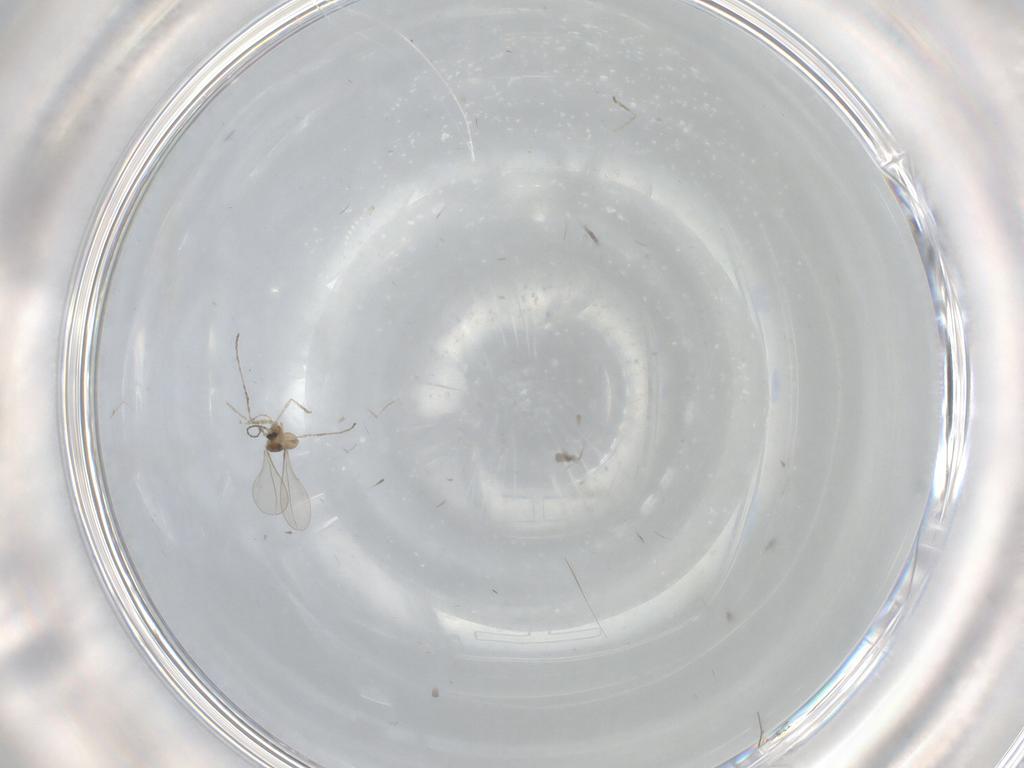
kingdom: Animalia
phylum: Arthropoda
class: Insecta
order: Diptera
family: Cecidomyiidae
